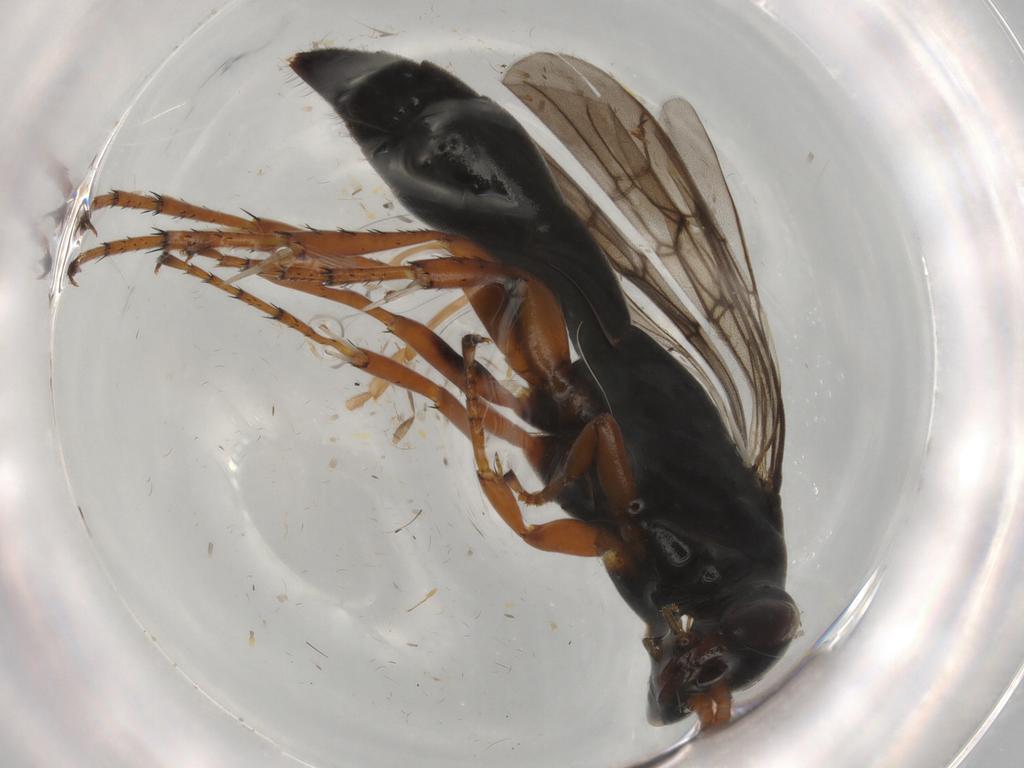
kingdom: Animalia
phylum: Arthropoda
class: Insecta
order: Hymenoptera
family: Pompilidae
